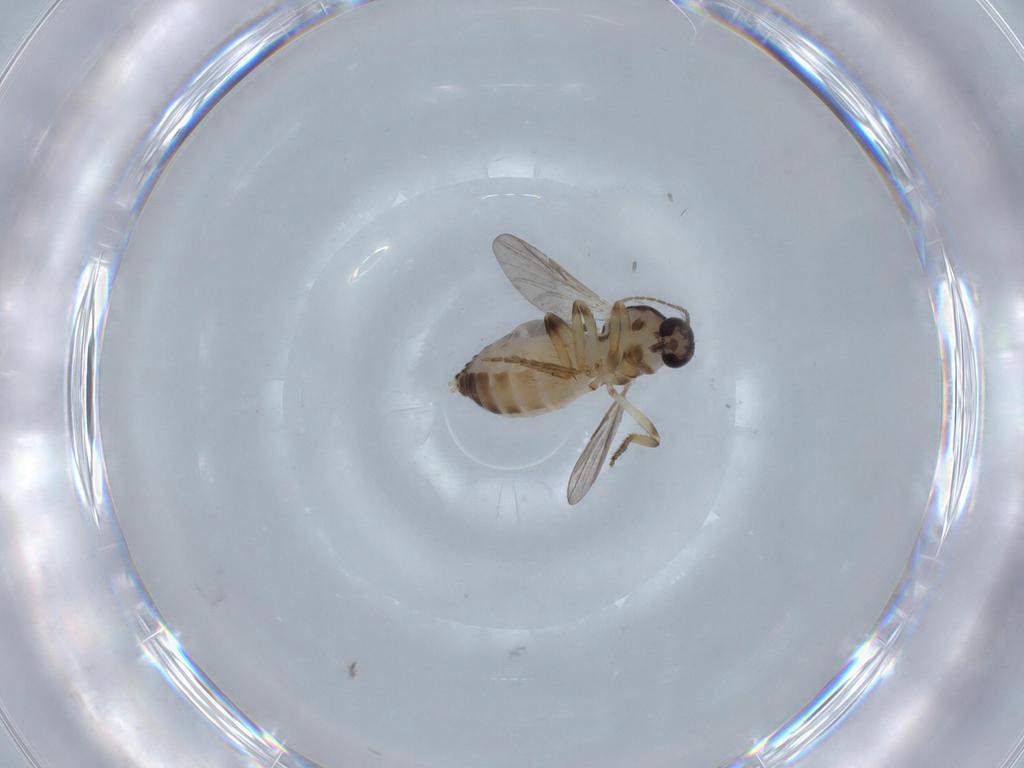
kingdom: Animalia
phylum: Arthropoda
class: Insecta
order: Diptera
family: Ceratopogonidae
